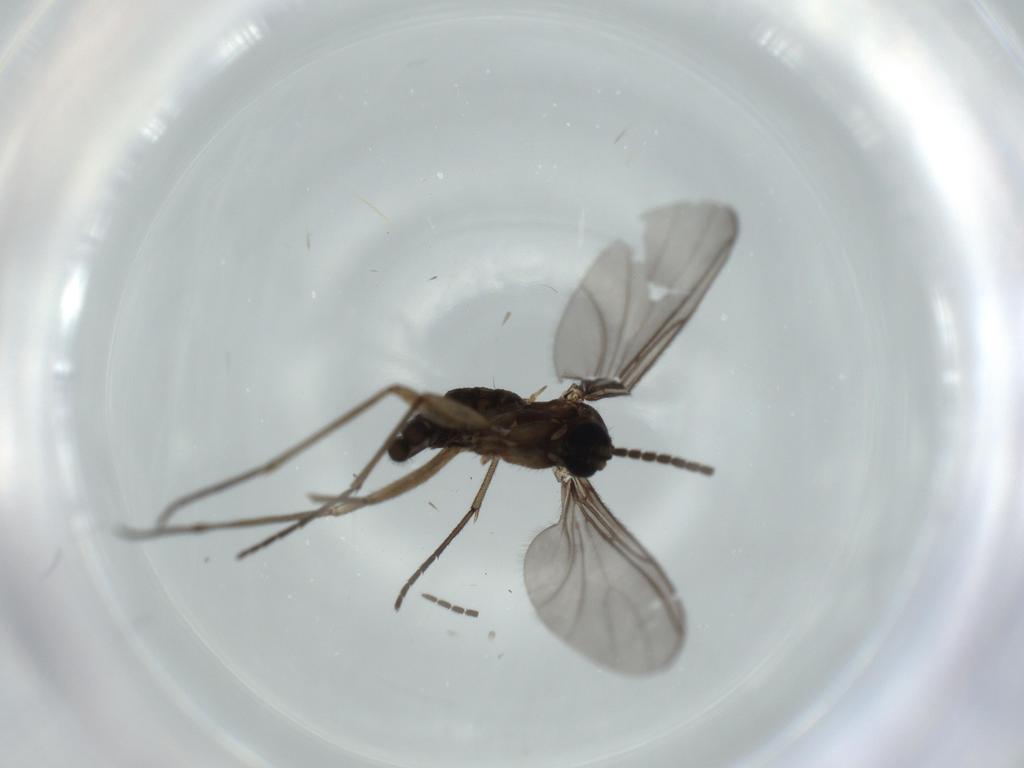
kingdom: Animalia
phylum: Arthropoda
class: Insecta
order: Diptera
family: Sciaridae
